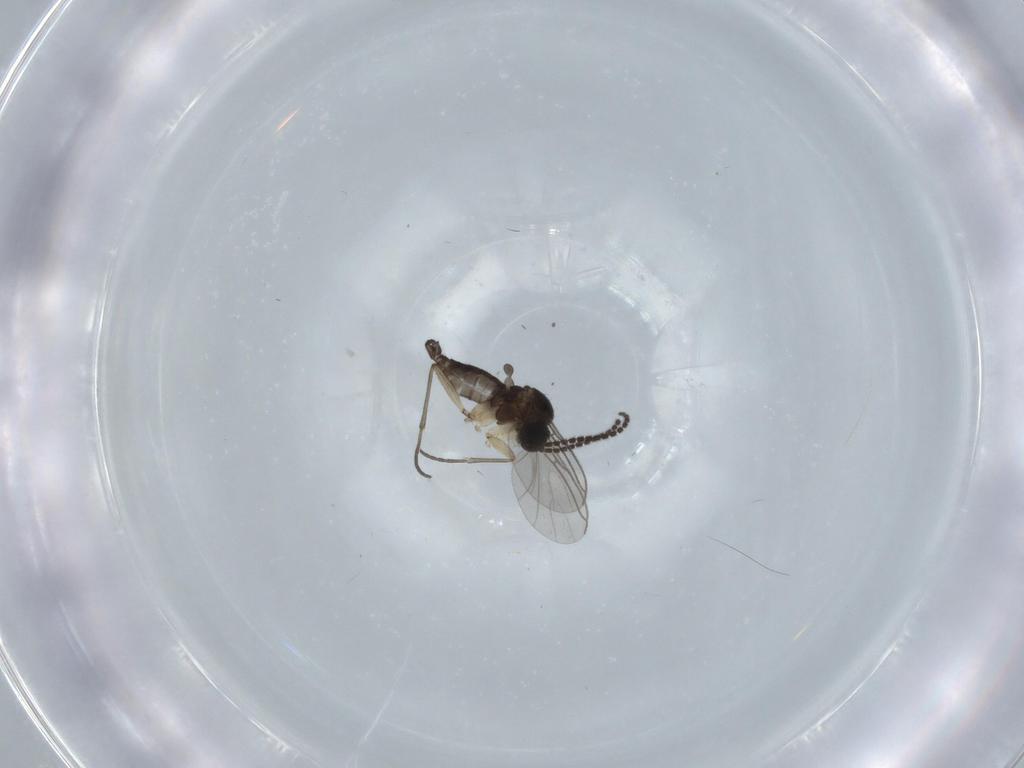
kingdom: Animalia
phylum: Arthropoda
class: Insecta
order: Diptera
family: Sciaridae
